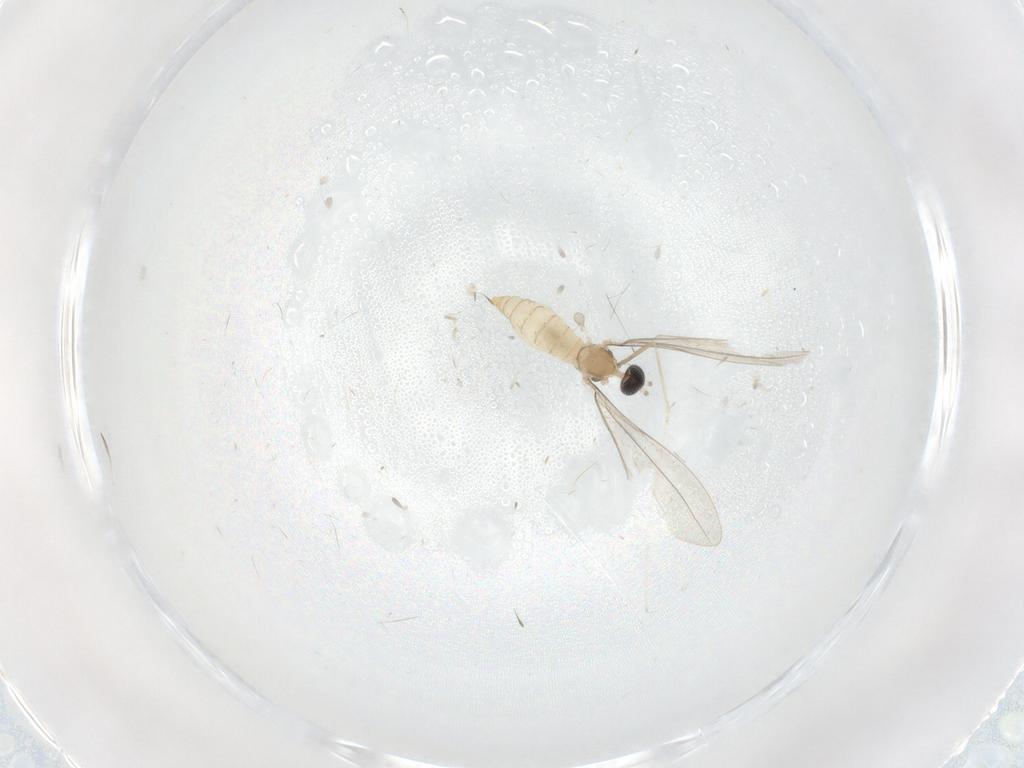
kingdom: Animalia
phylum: Arthropoda
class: Insecta
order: Diptera
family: Cecidomyiidae
